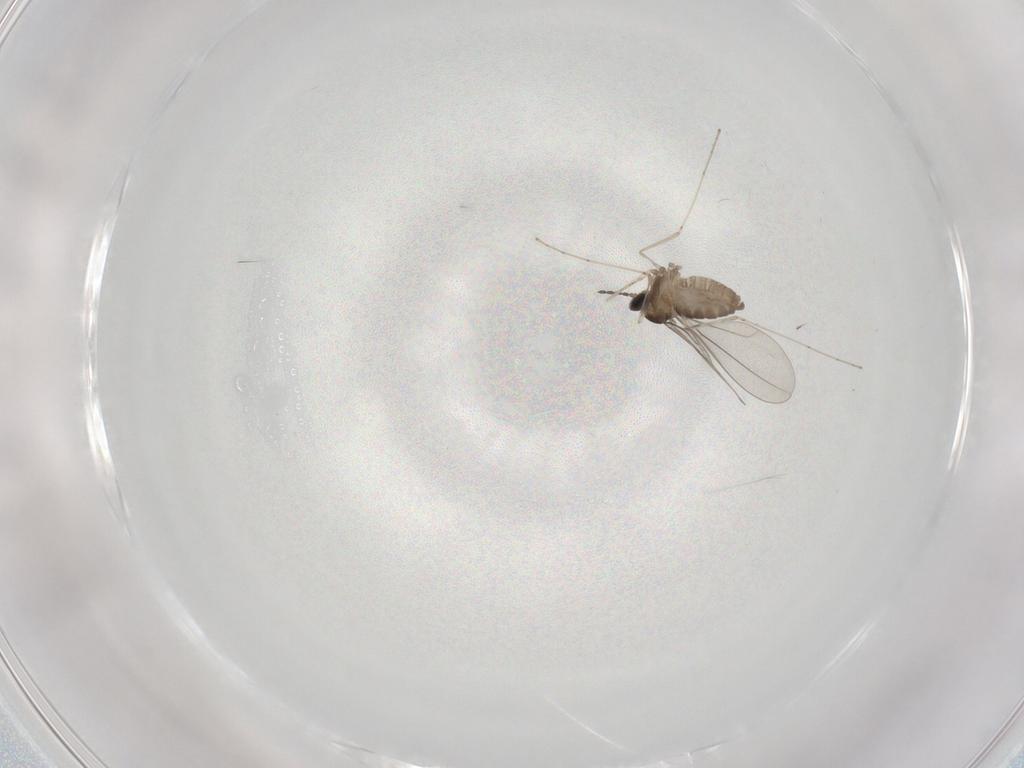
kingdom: Animalia
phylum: Arthropoda
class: Insecta
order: Diptera
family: Cecidomyiidae
